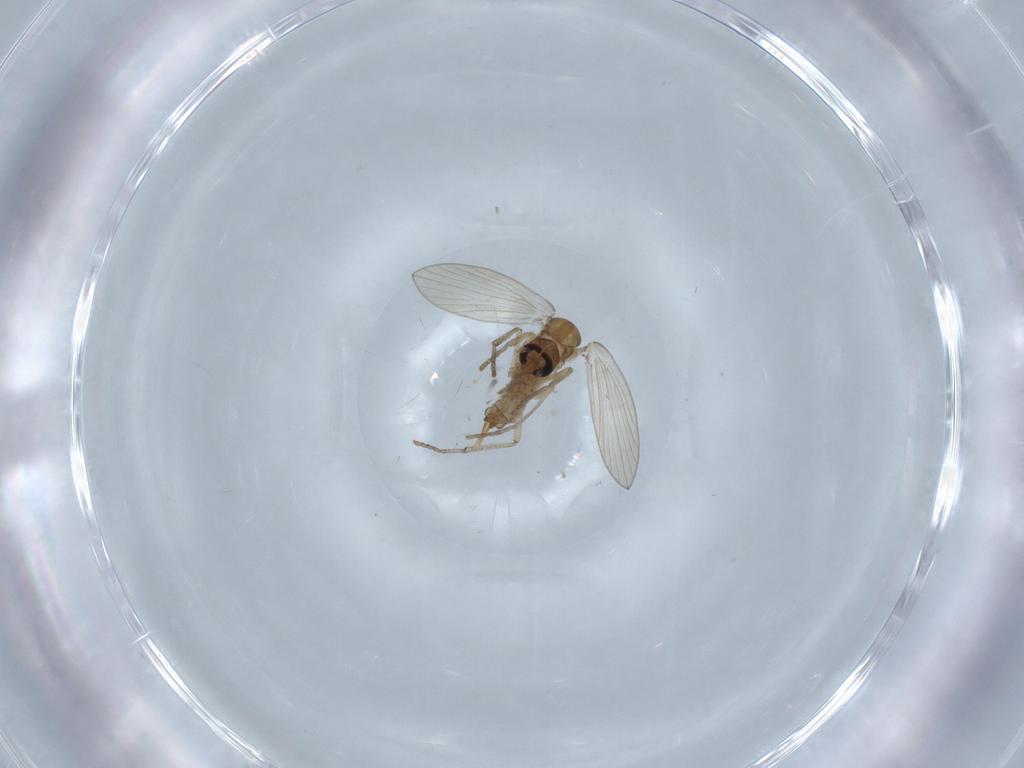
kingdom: Animalia
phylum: Arthropoda
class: Insecta
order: Diptera
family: Psychodidae
